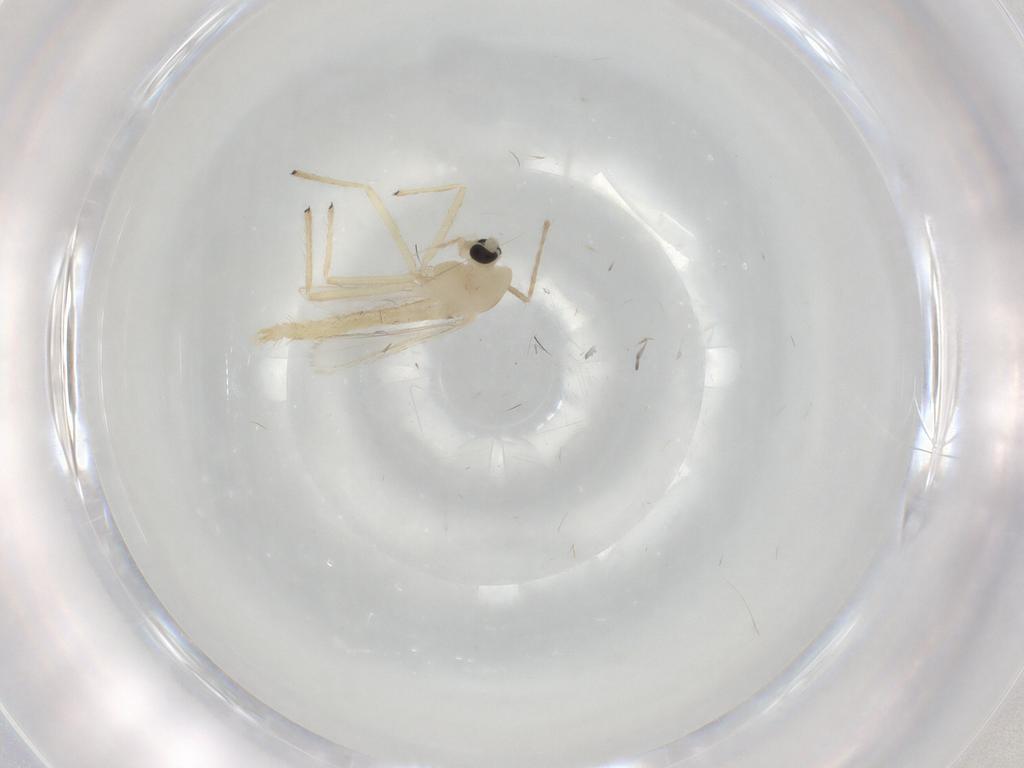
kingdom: Animalia
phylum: Arthropoda
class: Insecta
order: Diptera
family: Chironomidae
